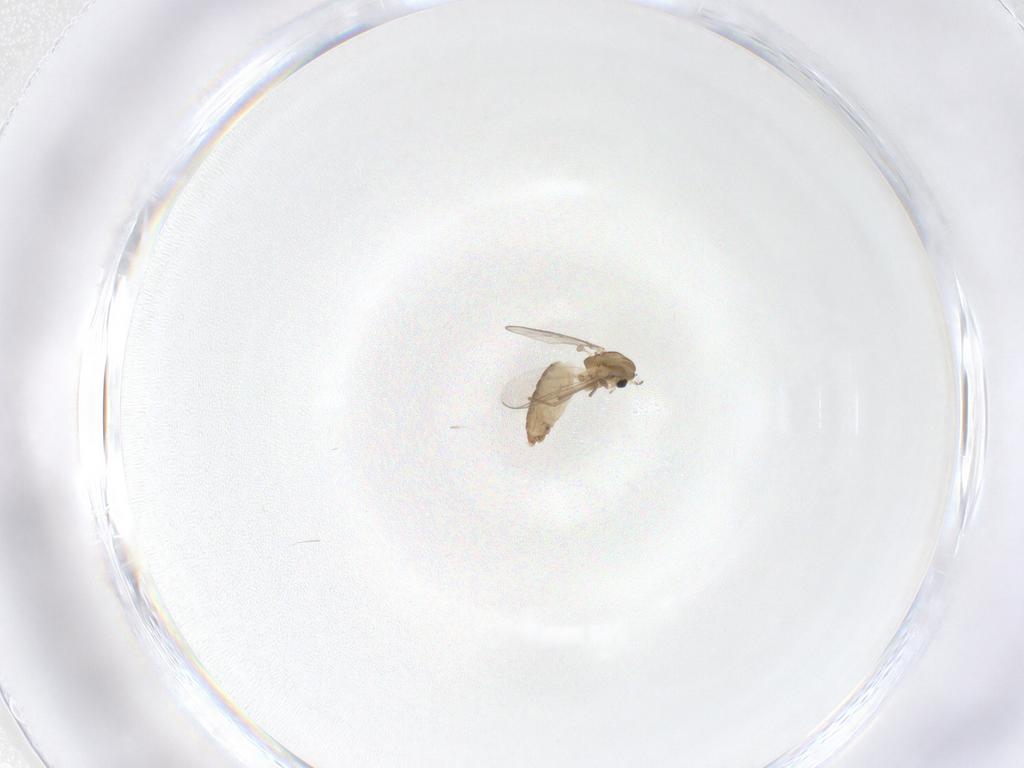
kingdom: Animalia
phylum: Arthropoda
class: Insecta
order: Diptera
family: Chironomidae
